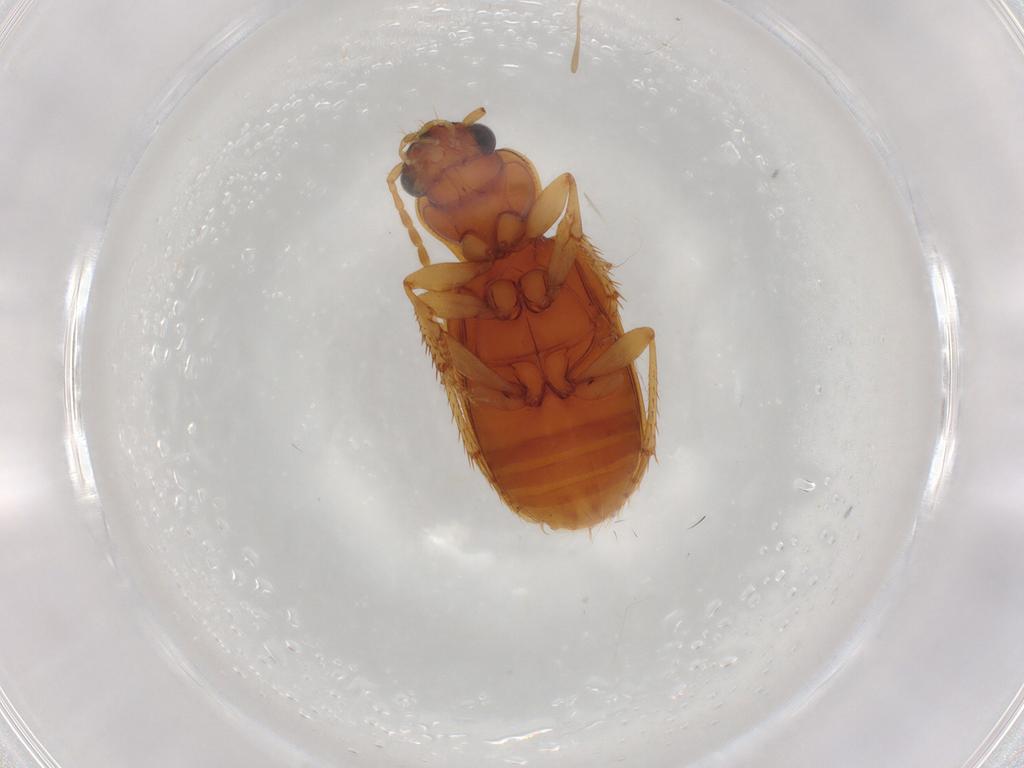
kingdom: Animalia
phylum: Arthropoda
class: Insecta
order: Coleoptera
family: Carabidae
